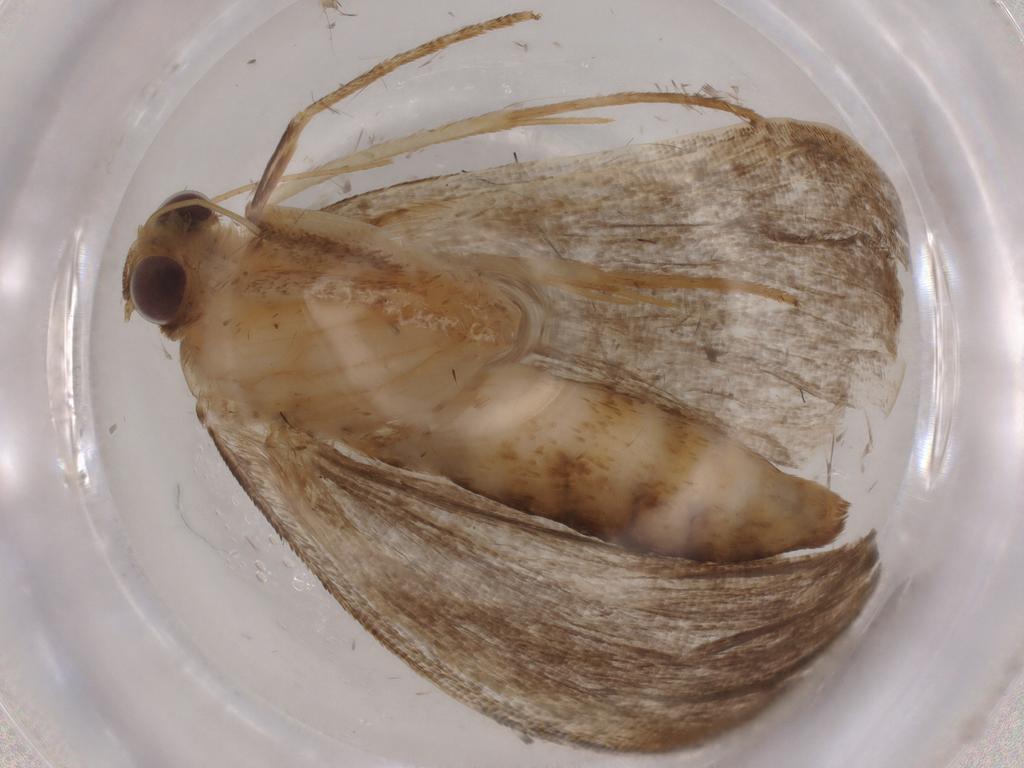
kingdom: Animalia
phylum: Arthropoda
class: Insecta
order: Lepidoptera
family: Erebidae
